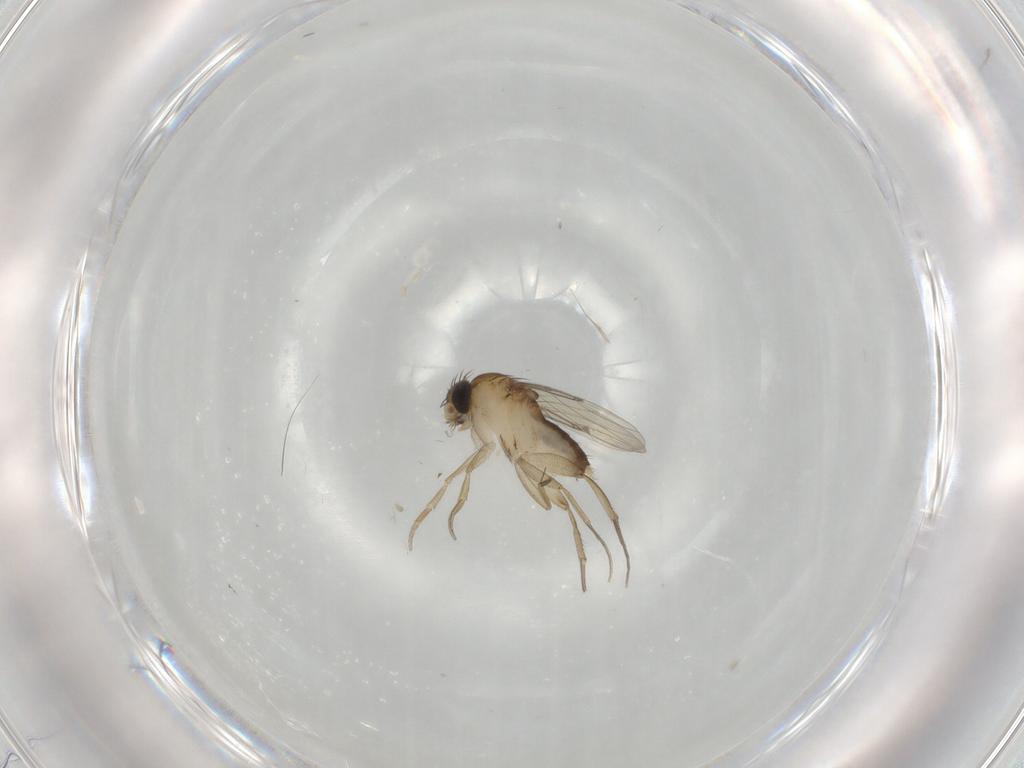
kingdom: Animalia
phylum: Arthropoda
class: Insecta
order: Diptera
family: Phoridae
